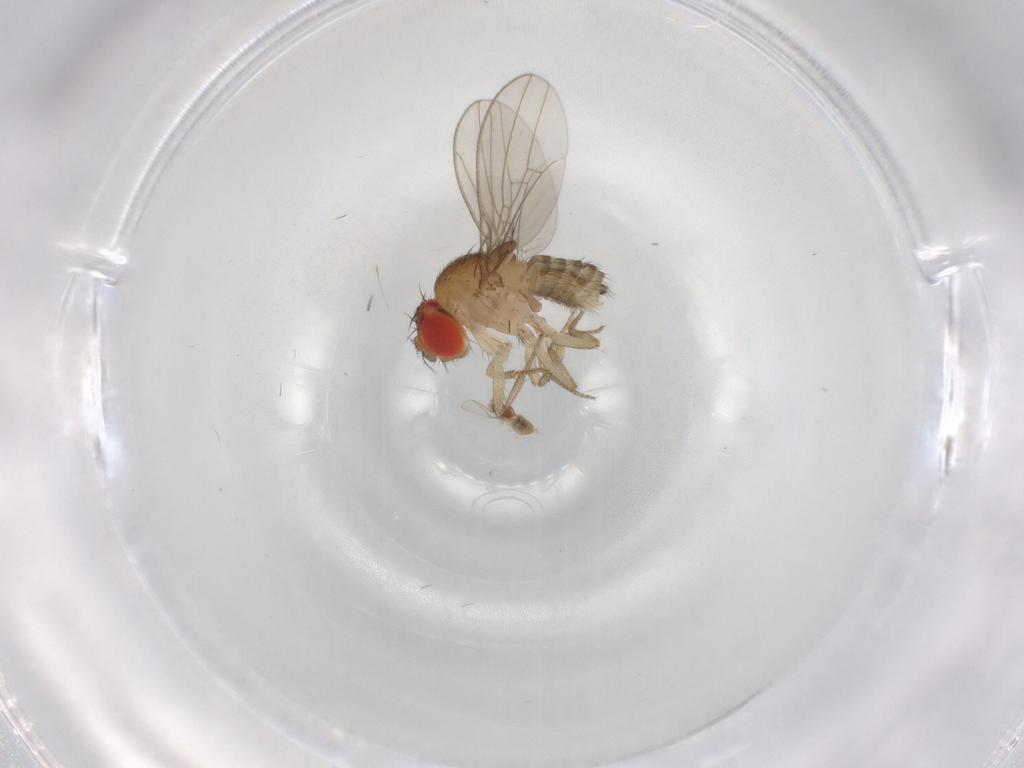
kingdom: Animalia
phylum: Arthropoda
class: Insecta
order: Diptera
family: Drosophilidae
